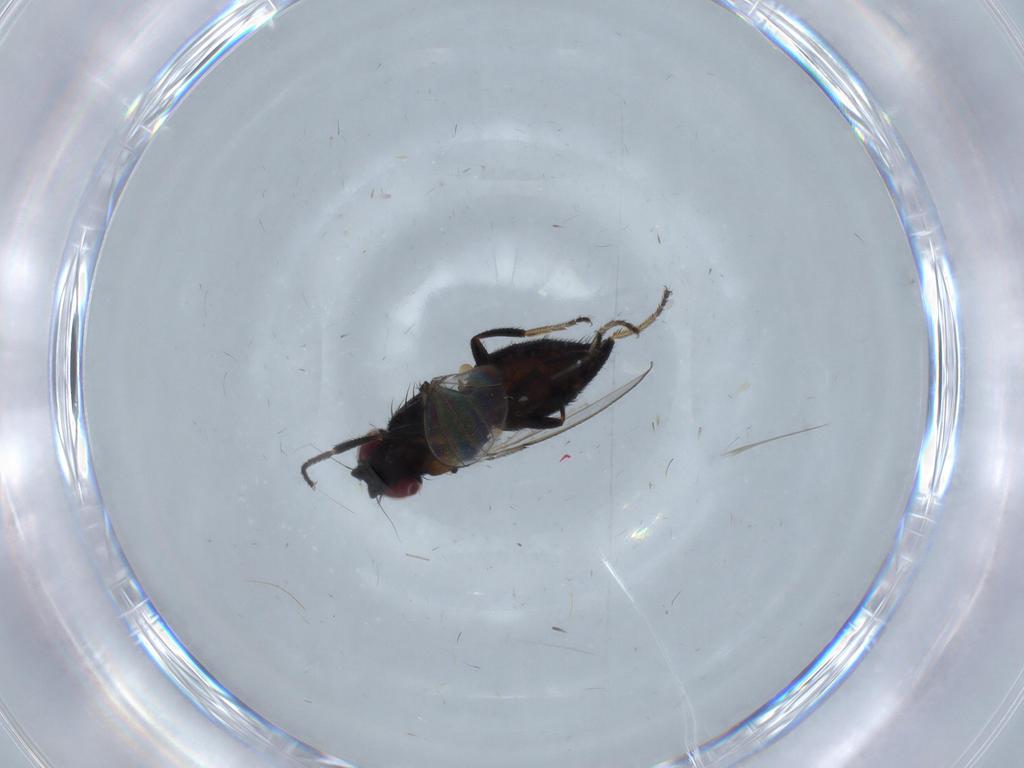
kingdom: Animalia
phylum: Arthropoda
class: Insecta
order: Diptera
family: Milichiidae
